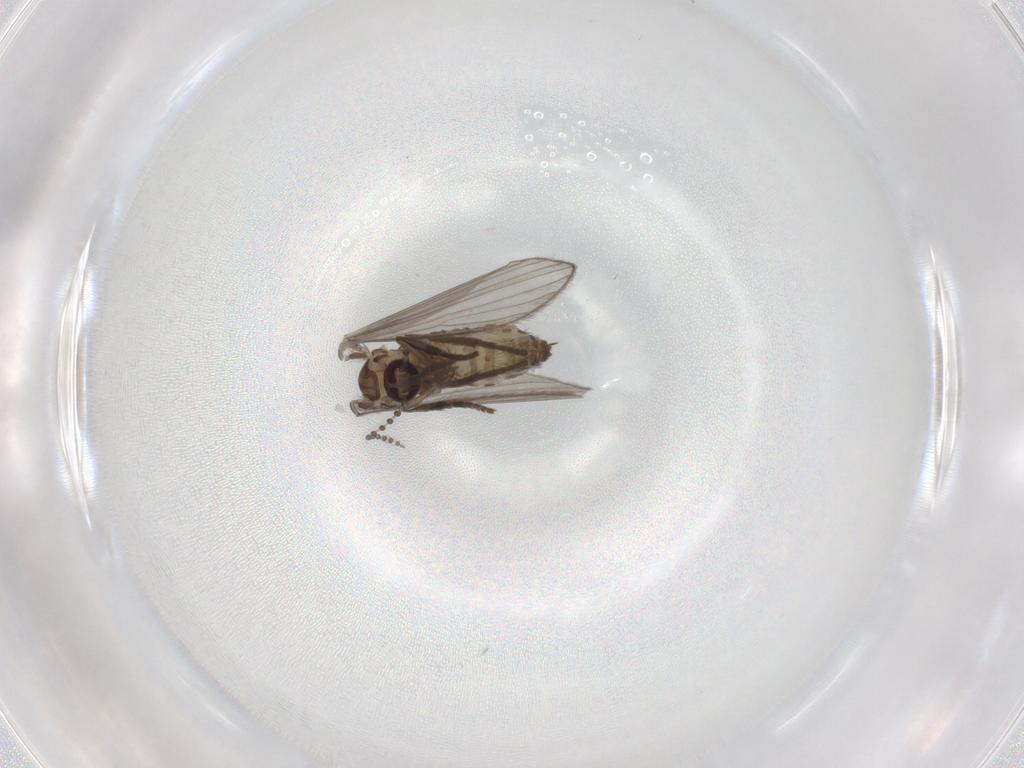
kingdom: Animalia
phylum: Arthropoda
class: Insecta
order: Diptera
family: Psychodidae
